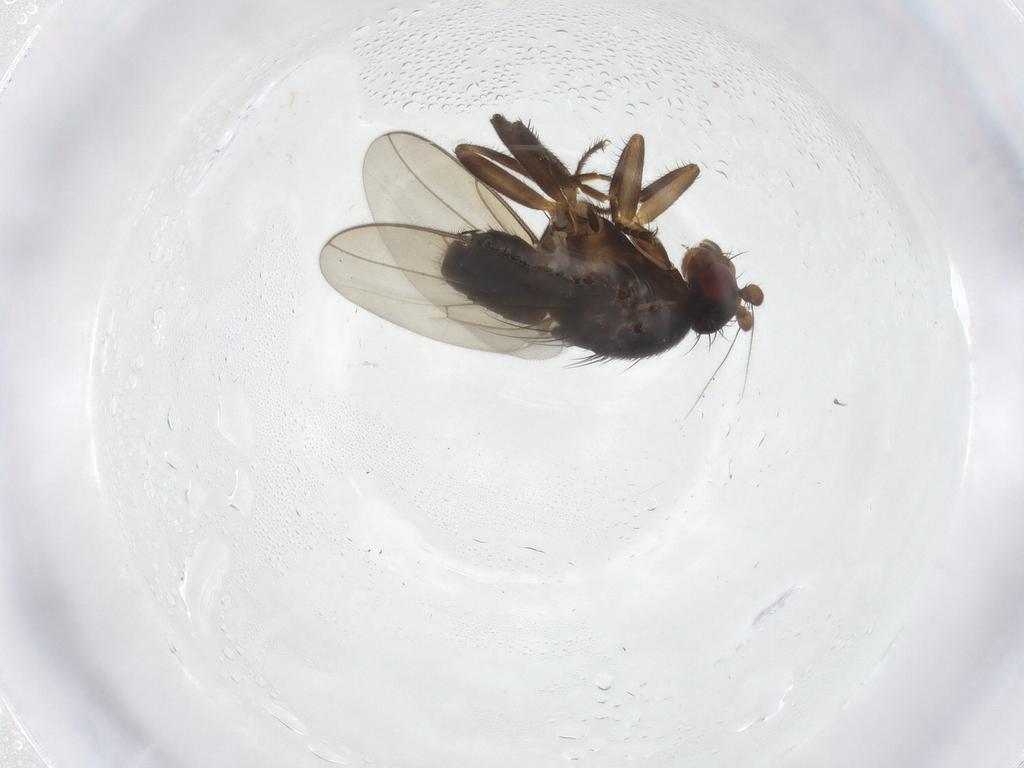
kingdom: Animalia
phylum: Arthropoda
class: Insecta
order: Diptera
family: Sphaeroceridae
